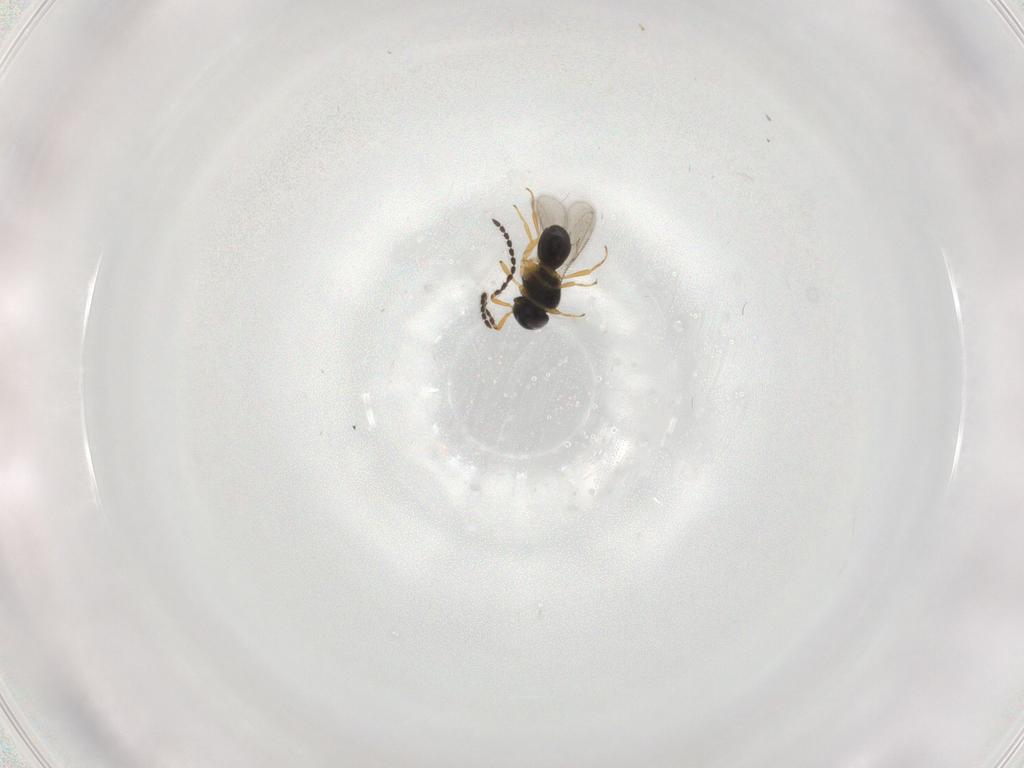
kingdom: Animalia
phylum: Arthropoda
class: Insecta
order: Hymenoptera
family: Scelionidae
